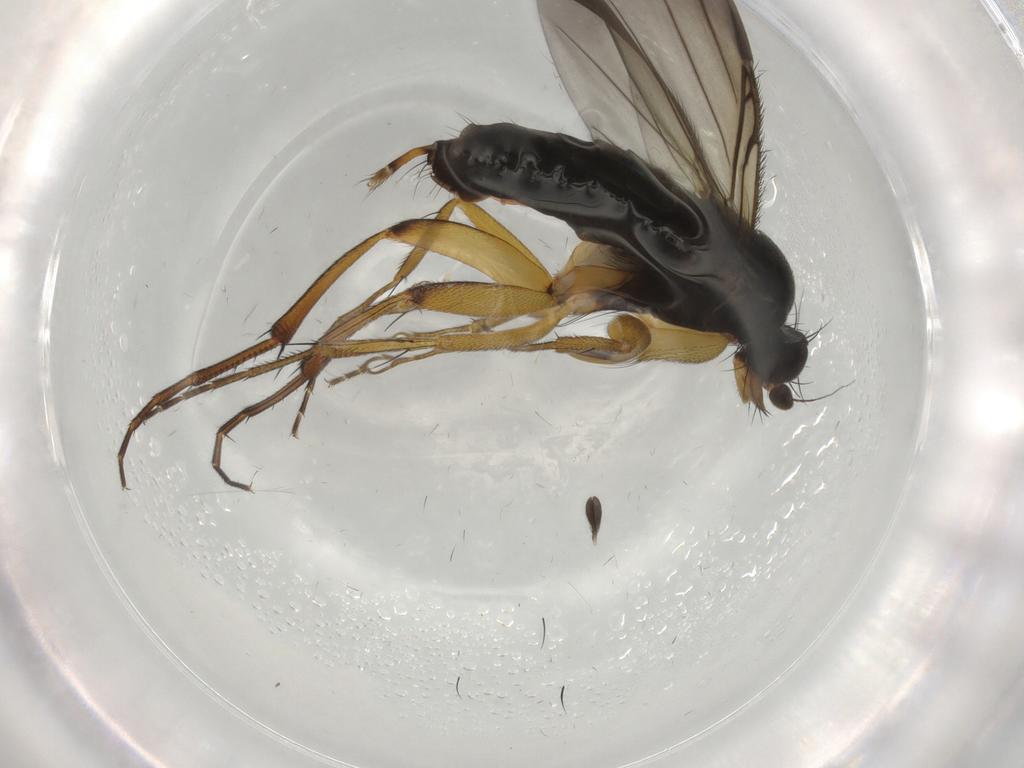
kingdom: Animalia
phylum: Arthropoda
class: Insecta
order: Diptera
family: Phoridae
